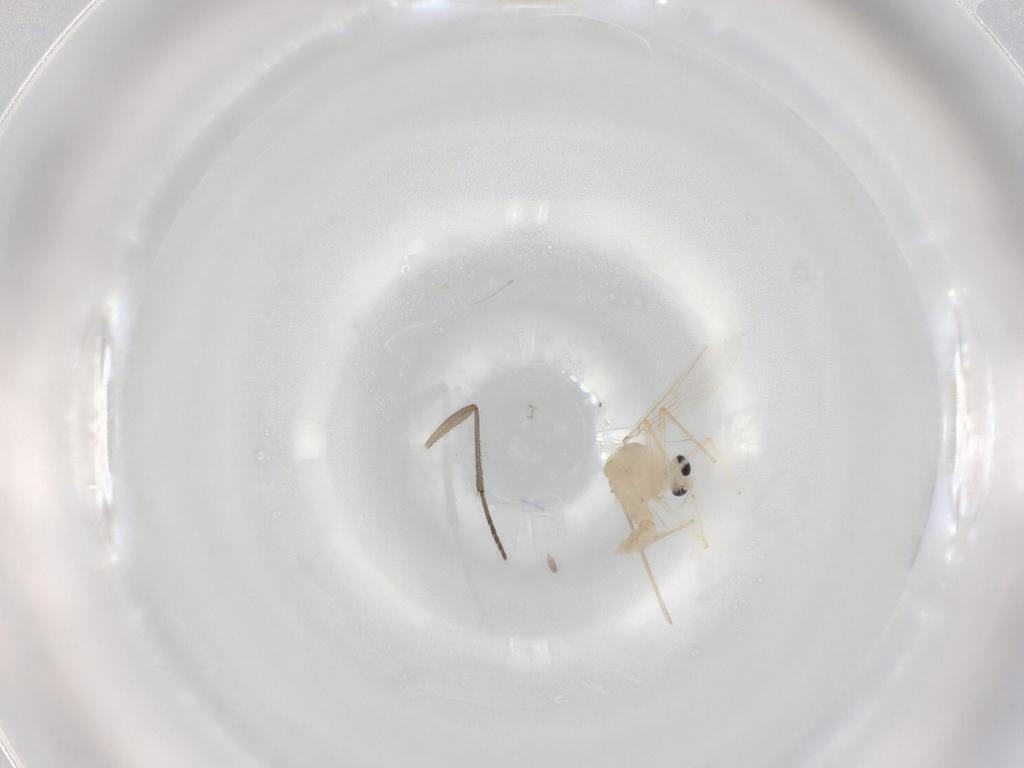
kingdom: Animalia
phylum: Arthropoda
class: Insecta
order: Diptera
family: Chironomidae
